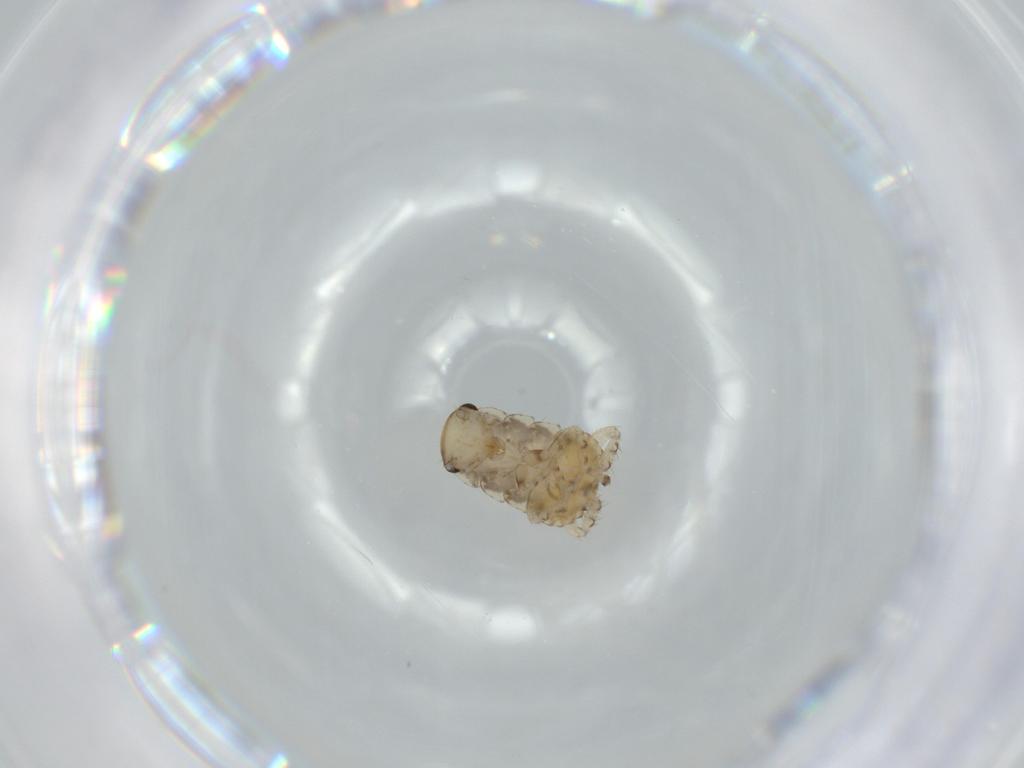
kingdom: Animalia
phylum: Arthropoda
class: Insecta
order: Blattodea
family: Ectobiidae
